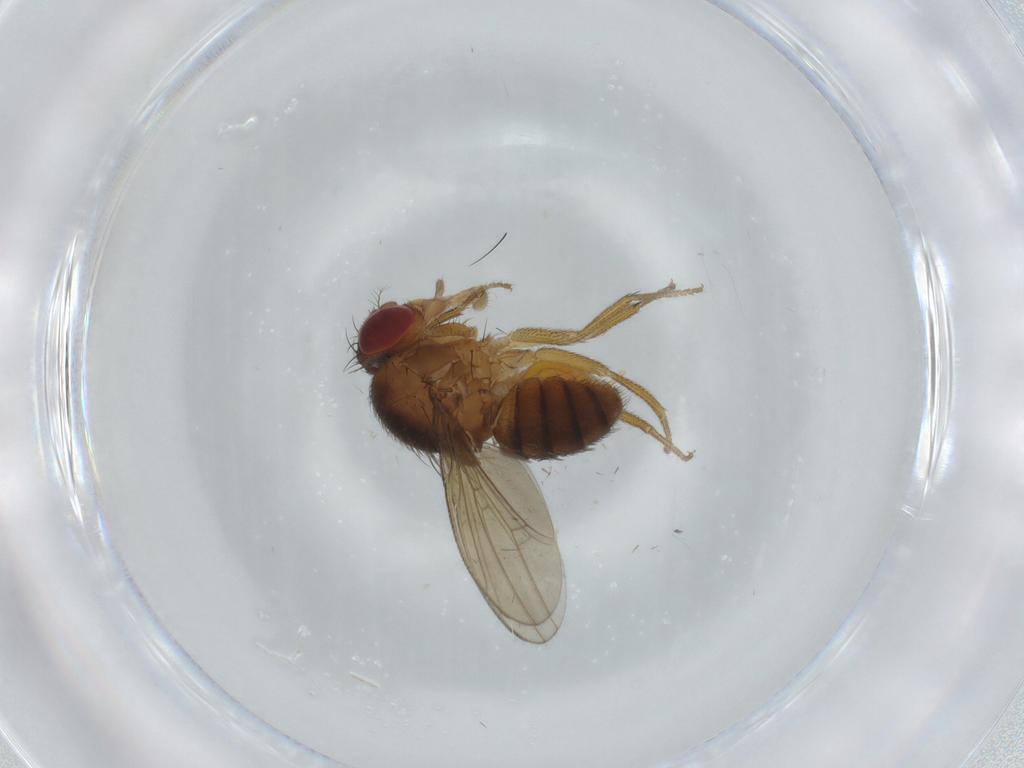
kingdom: Animalia
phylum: Arthropoda
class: Insecta
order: Diptera
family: Drosophilidae
